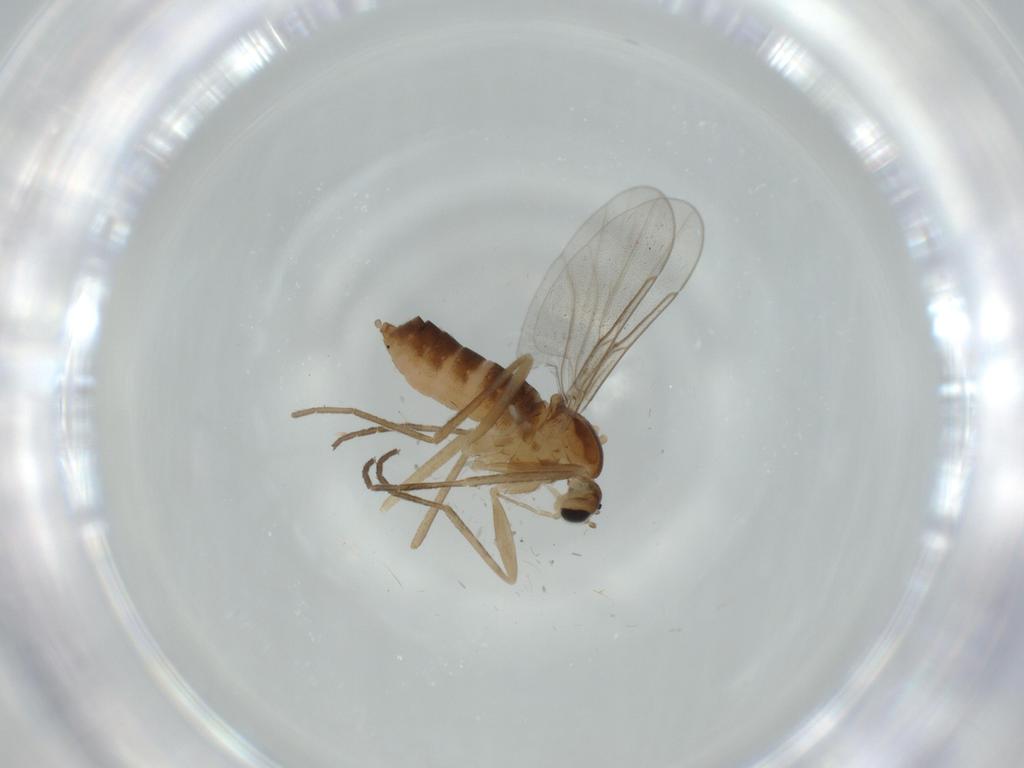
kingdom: Animalia
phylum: Arthropoda
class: Insecta
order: Diptera
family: Cecidomyiidae
